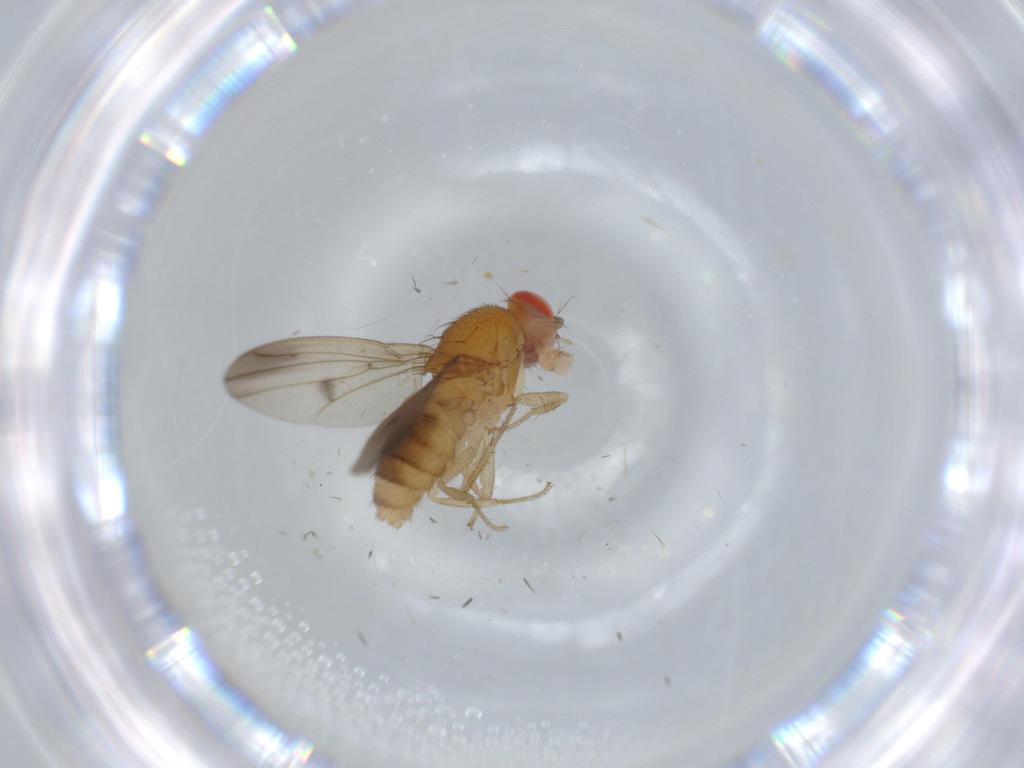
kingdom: Animalia
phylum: Arthropoda
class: Insecta
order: Diptera
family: Drosophilidae
